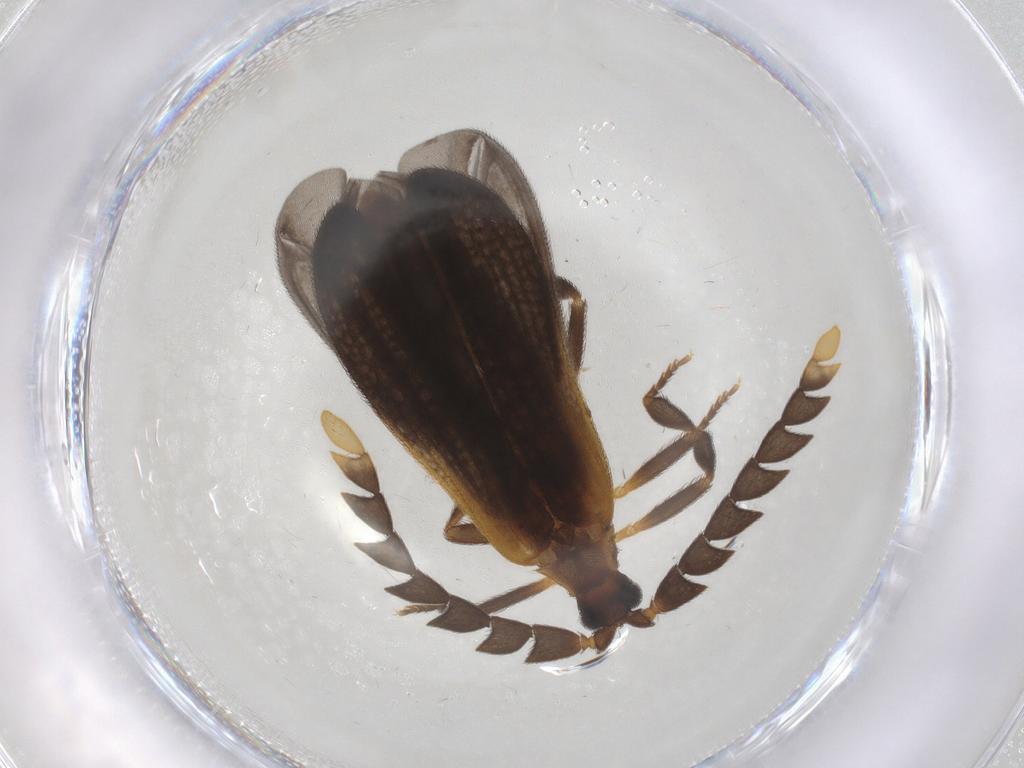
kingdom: Animalia
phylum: Arthropoda
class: Insecta
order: Coleoptera
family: Lycidae
